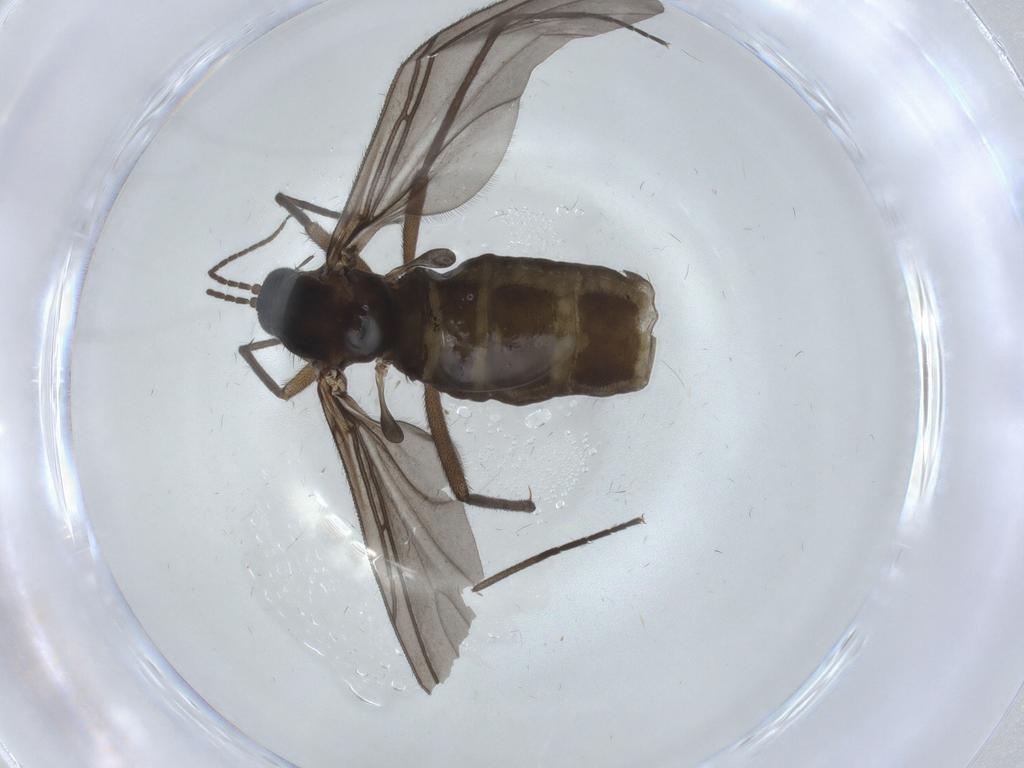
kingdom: Animalia
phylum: Arthropoda
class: Insecta
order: Diptera
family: Sciaridae
